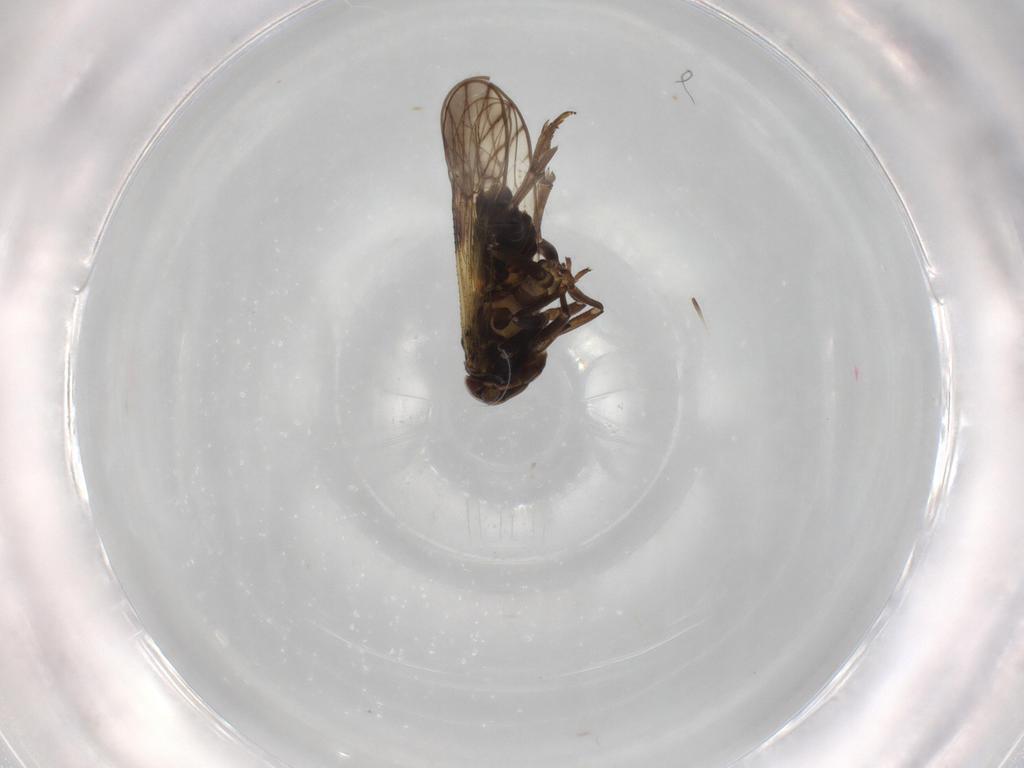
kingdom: Animalia
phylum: Arthropoda
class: Insecta
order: Hemiptera
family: Delphacidae
